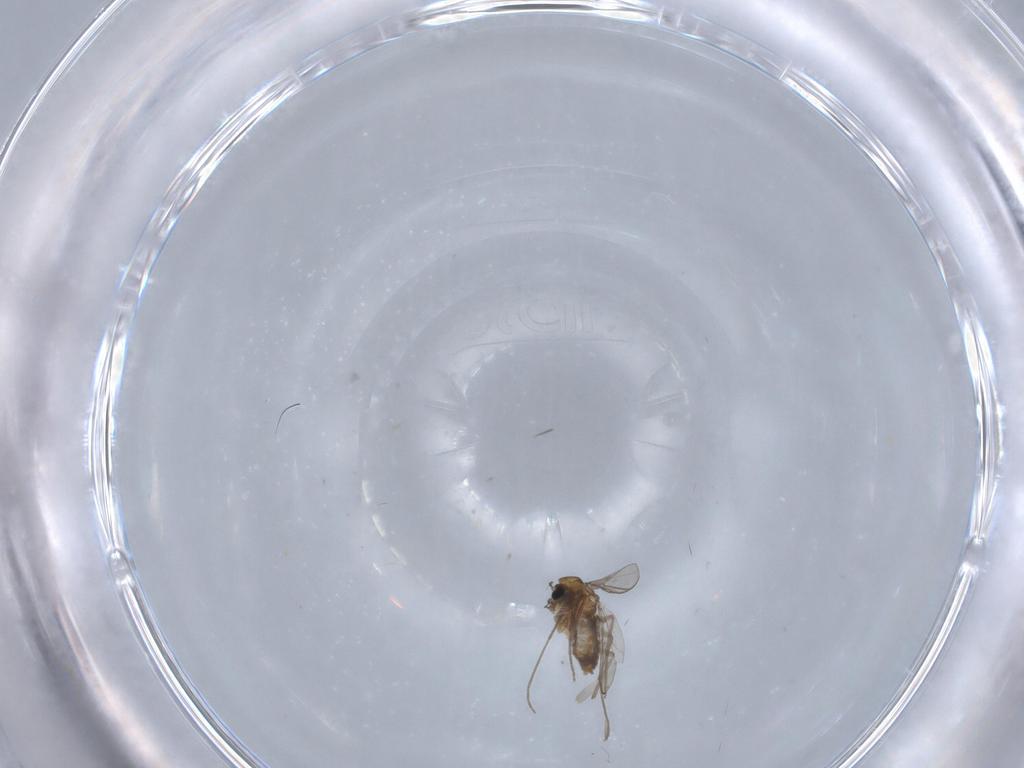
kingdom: Animalia
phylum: Arthropoda
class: Insecta
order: Diptera
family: Chironomidae
